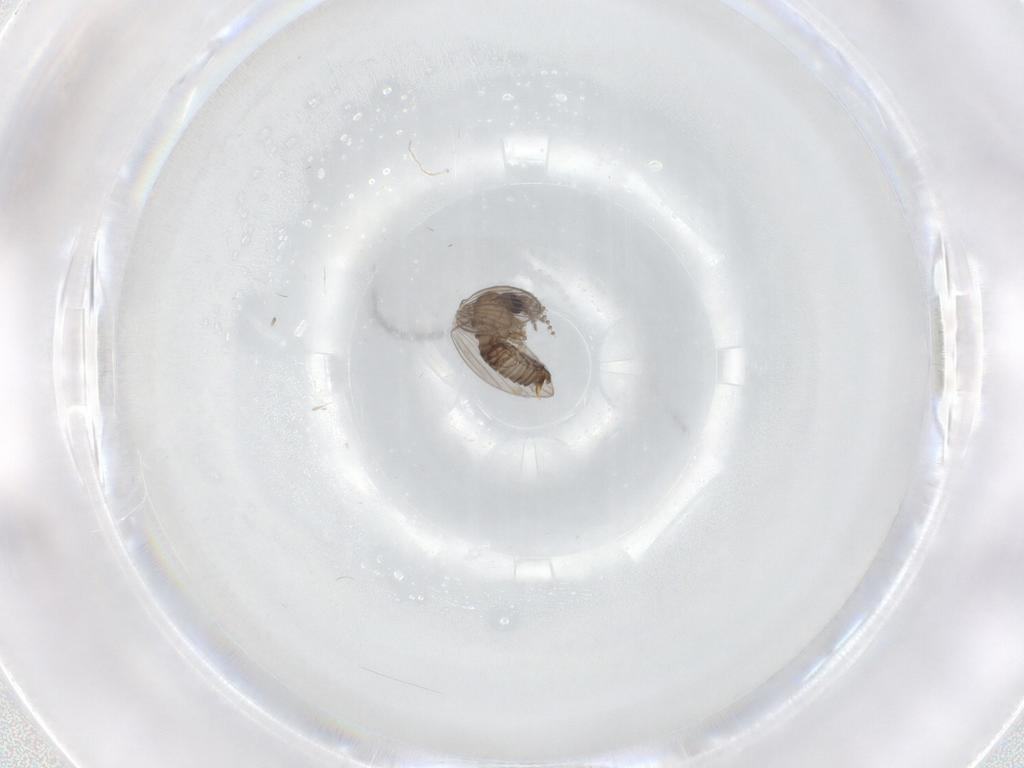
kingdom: Animalia
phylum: Arthropoda
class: Insecta
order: Diptera
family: Psychodidae
